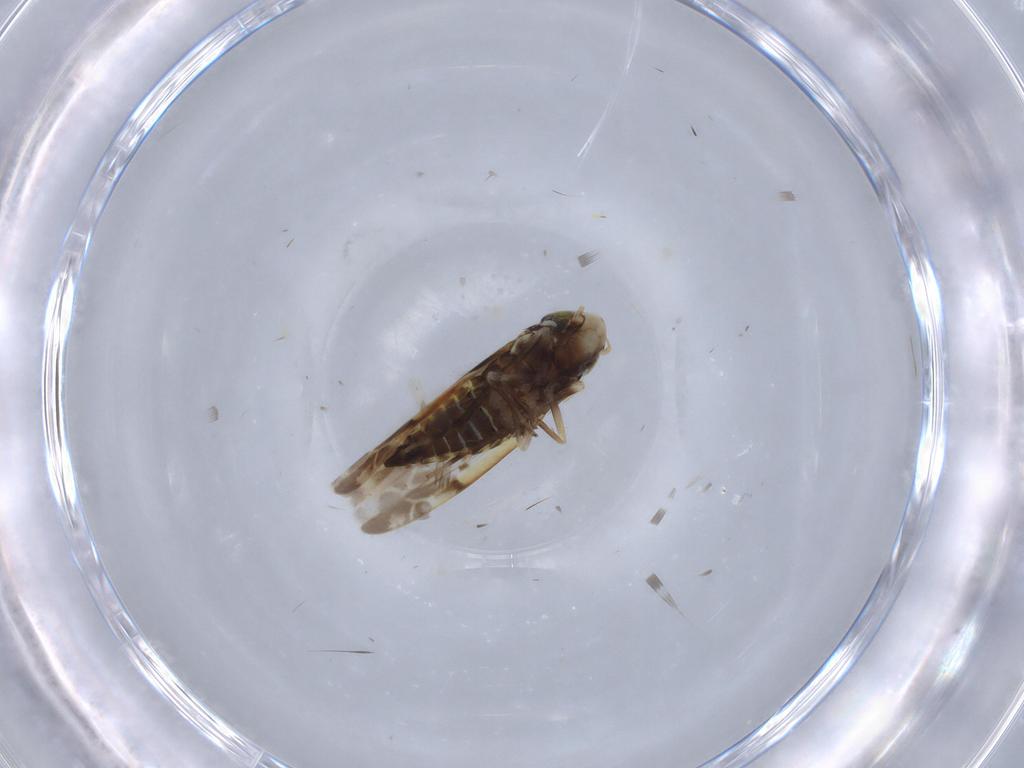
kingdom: Animalia
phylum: Arthropoda
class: Insecta
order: Hemiptera
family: Cicadellidae
